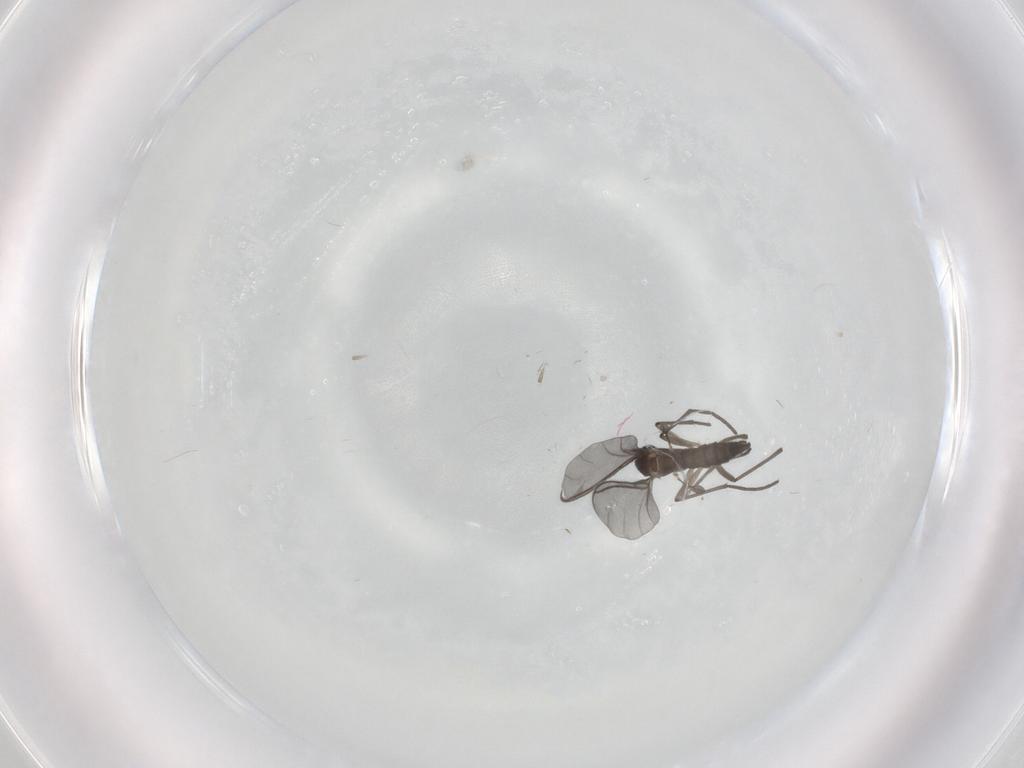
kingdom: Animalia
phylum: Arthropoda
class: Insecta
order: Diptera
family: Sciaridae
